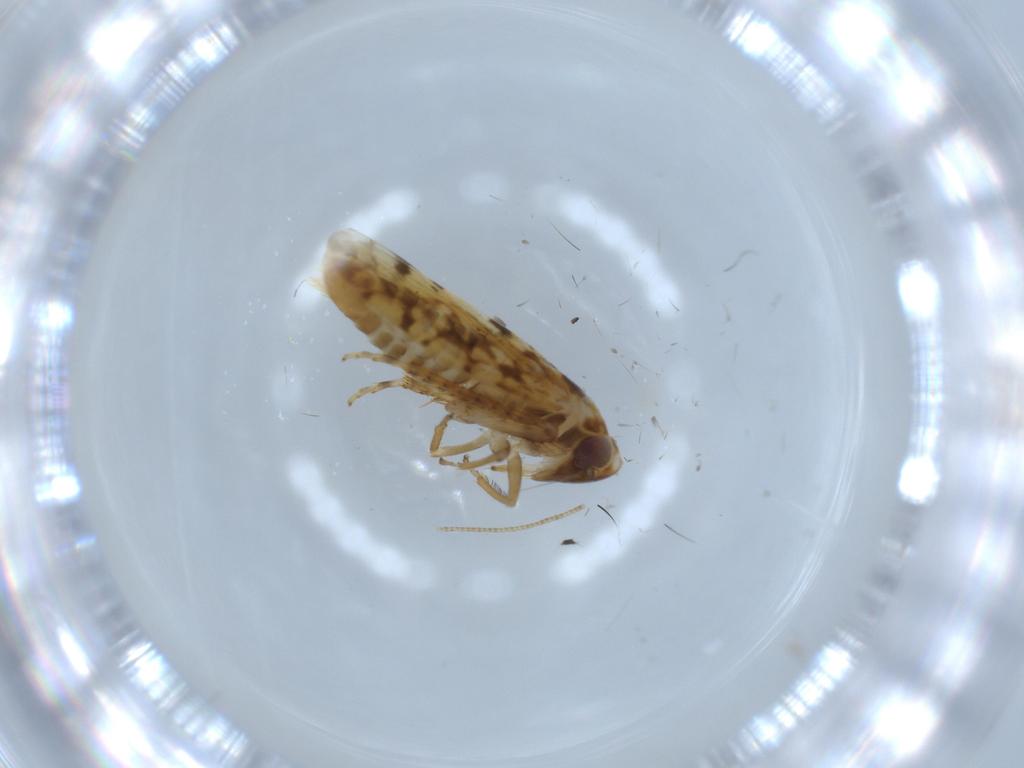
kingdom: Animalia
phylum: Arthropoda
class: Insecta
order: Hemiptera
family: Cicadellidae
